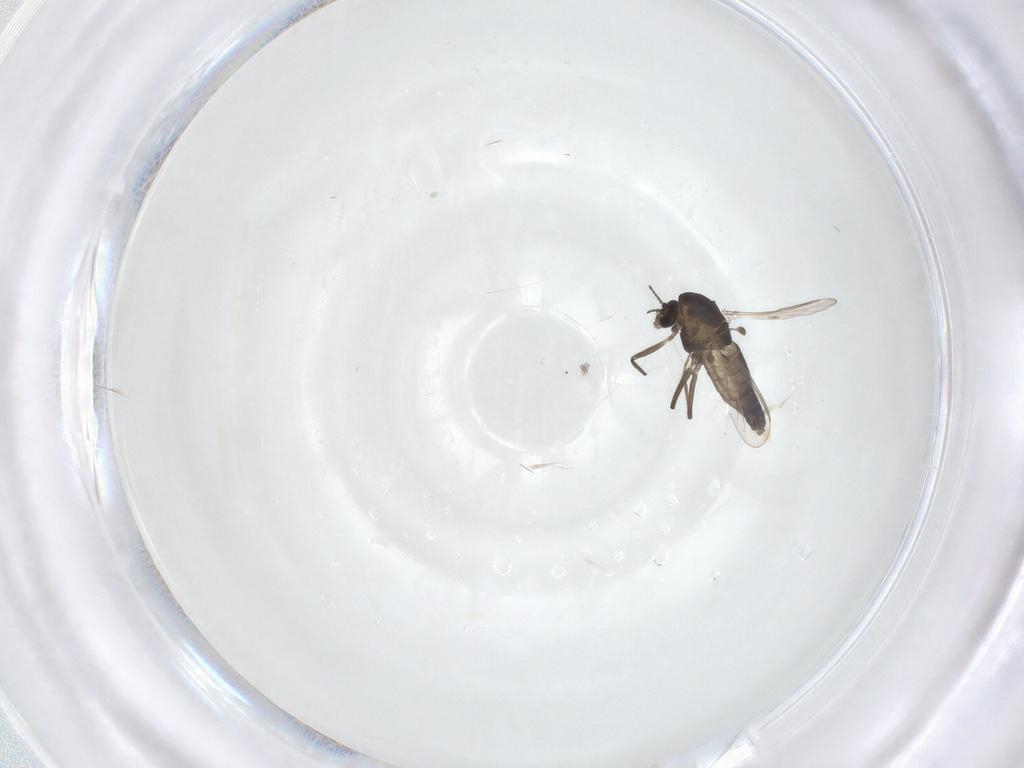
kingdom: Animalia
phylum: Arthropoda
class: Insecta
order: Diptera
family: Chironomidae
